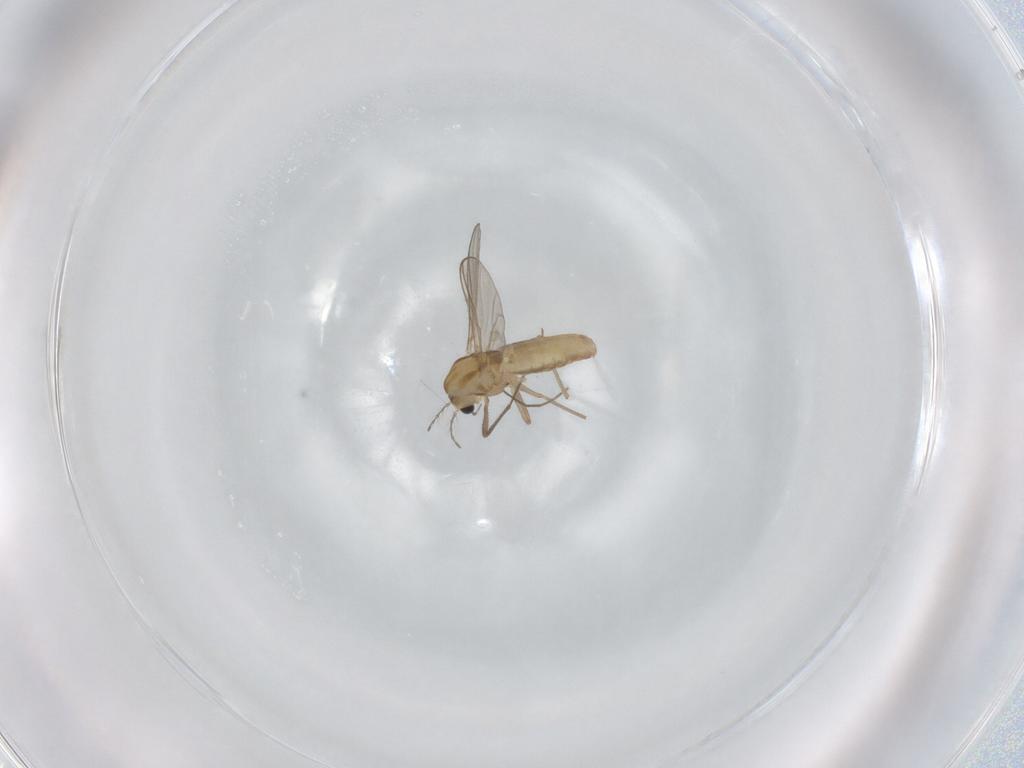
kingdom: Animalia
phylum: Arthropoda
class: Insecta
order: Diptera
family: Chironomidae
